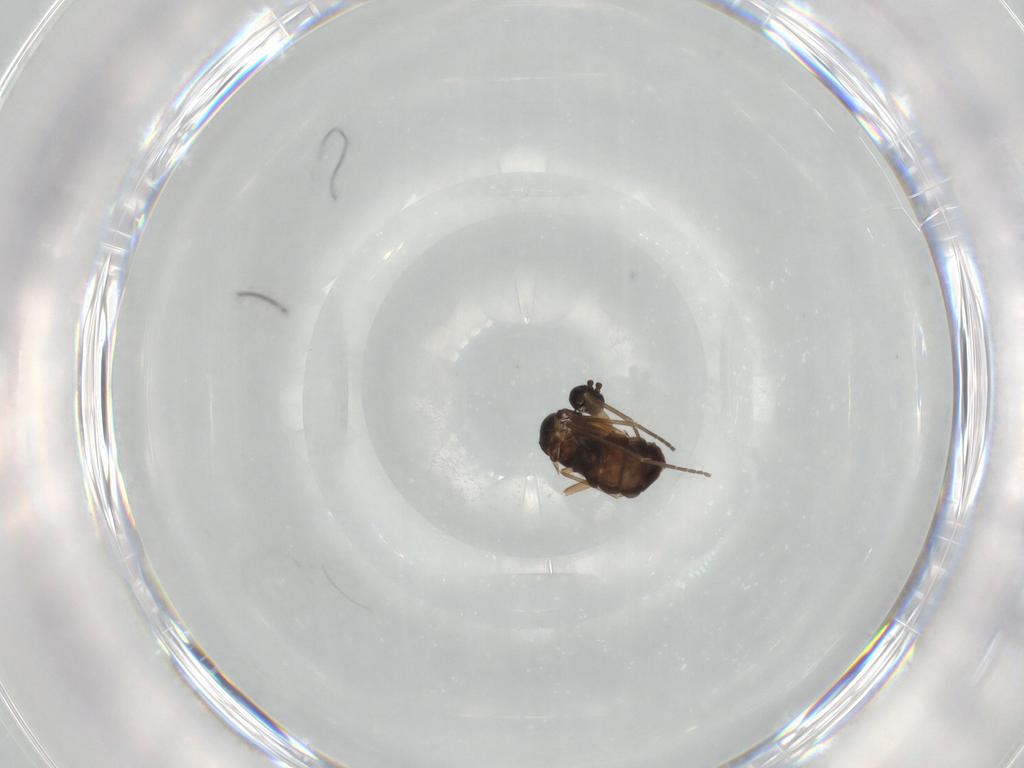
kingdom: Animalia
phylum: Arthropoda
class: Insecta
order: Diptera
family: Sciaridae
